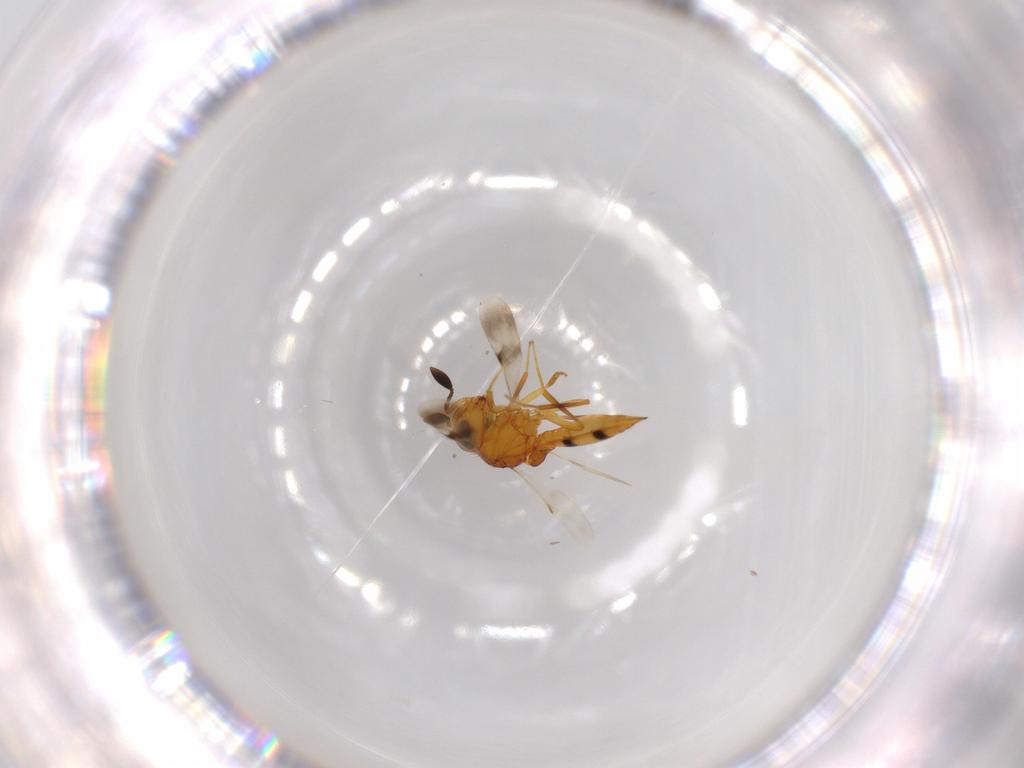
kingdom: Animalia
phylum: Arthropoda
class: Insecta
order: Hymenoptera
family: Scelionidae
